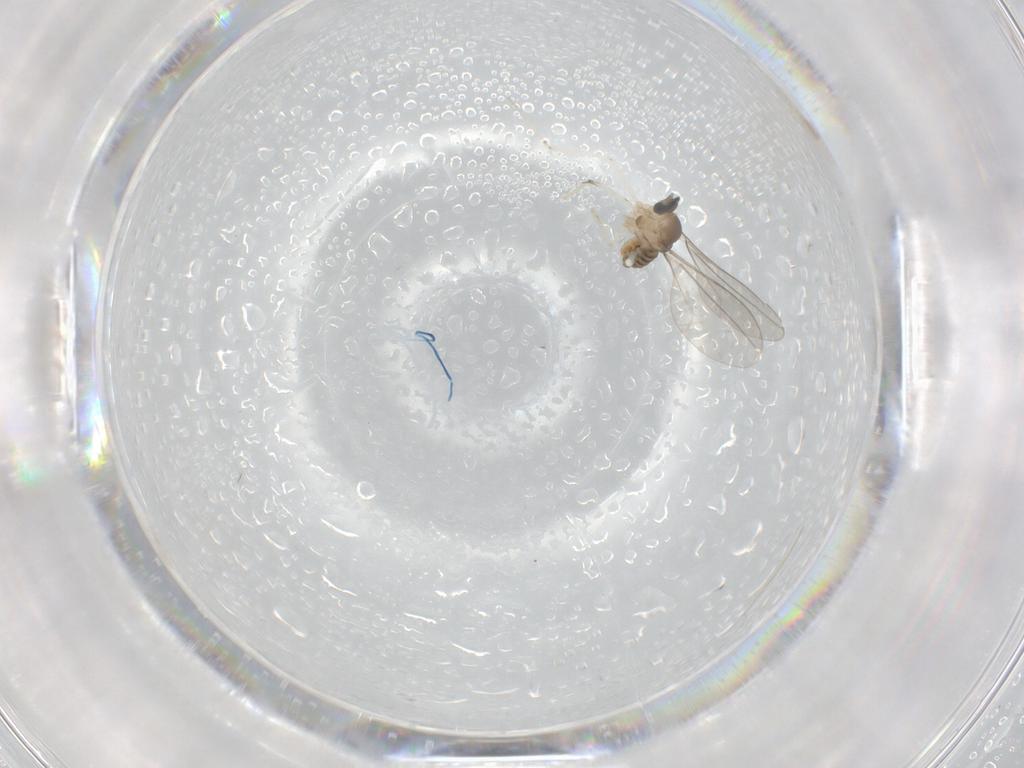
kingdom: Animalia
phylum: Arthropoda
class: Insecta
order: Diptera
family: Cecidomyiidae
